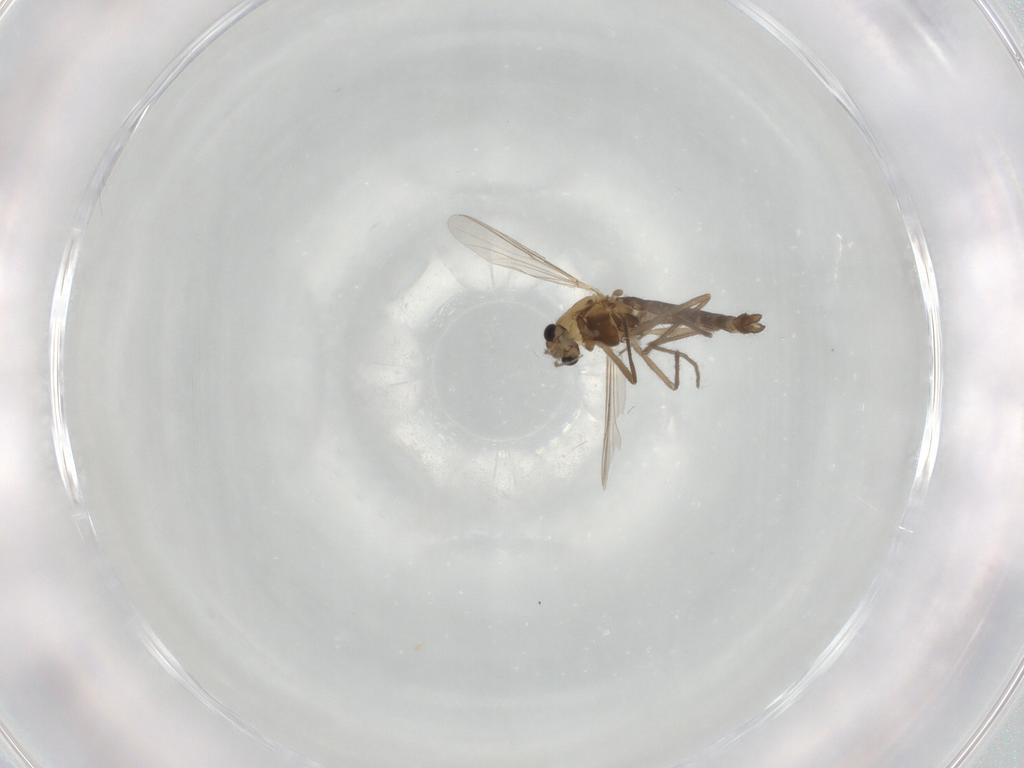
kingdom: Animalia
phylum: Arthropoda
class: Insecta
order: Diptera
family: Chironomidae
